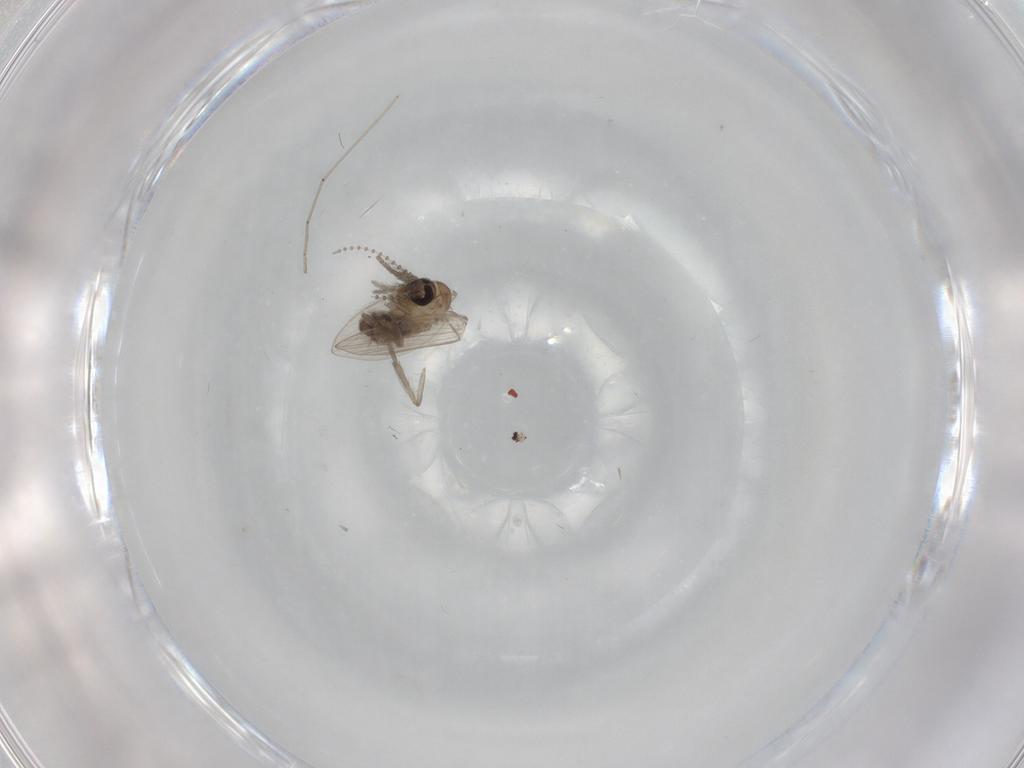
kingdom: Animalia
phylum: Arthropoda
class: Insecta
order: Diptera
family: Psychodidae
